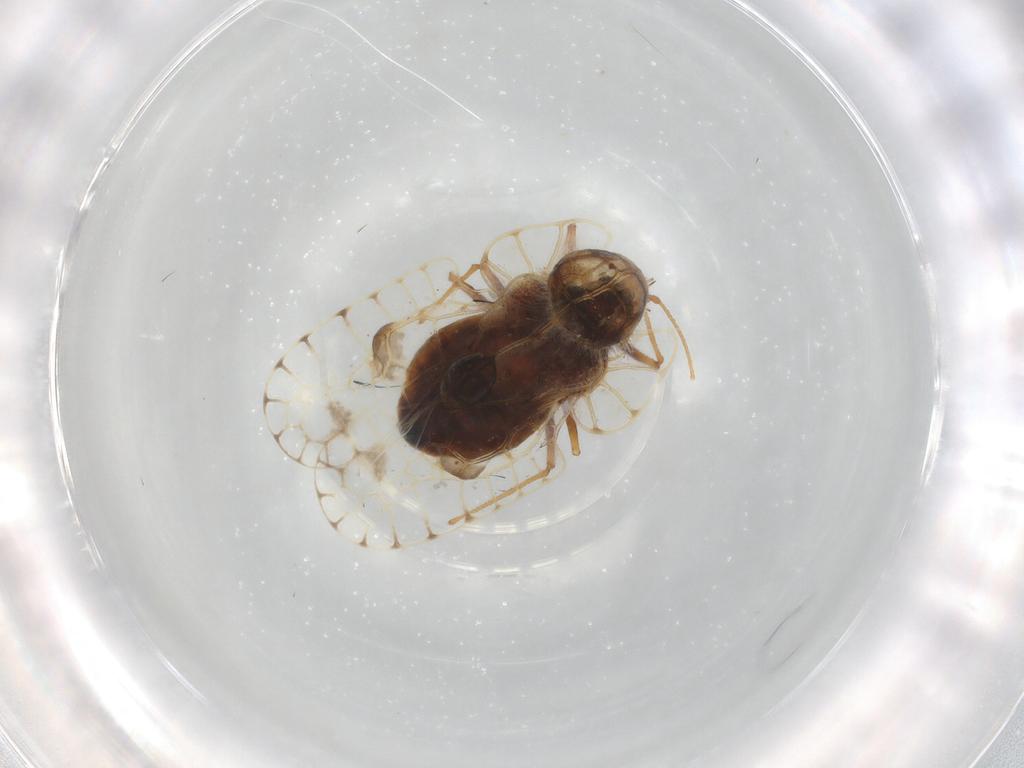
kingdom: Animalia
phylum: Arthropoda
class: Insecta
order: Hemiptera
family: Tingidae
